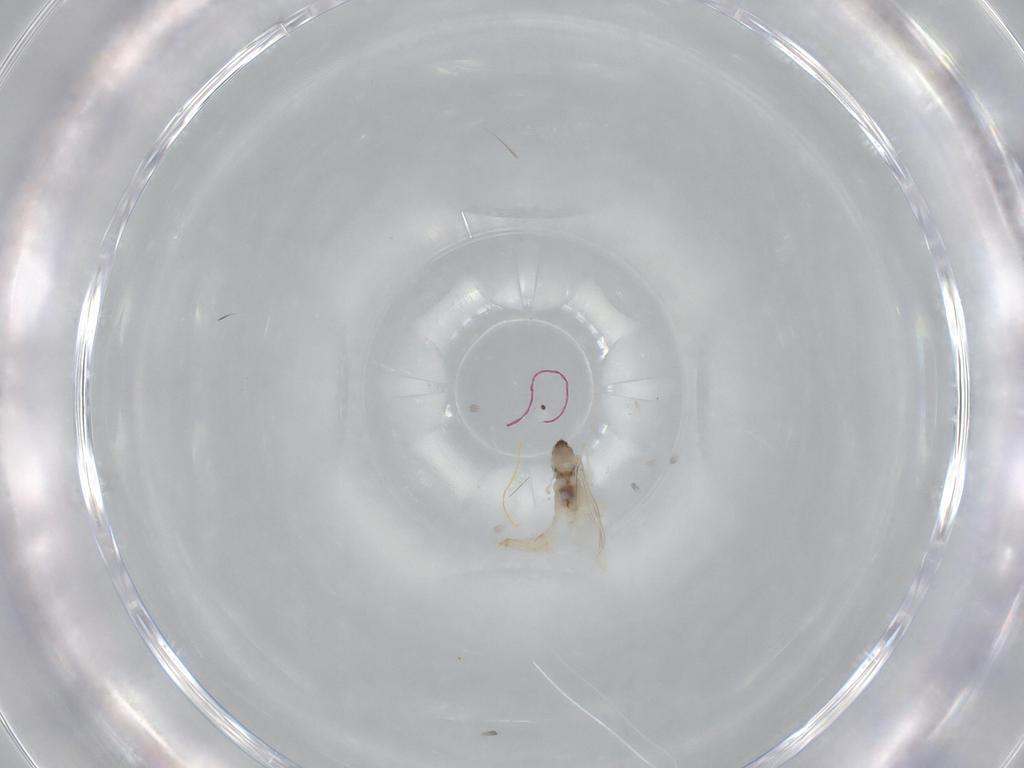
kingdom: Animalia
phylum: Arthropoda
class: Insecta
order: Diptera
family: Cecidomyiidae
